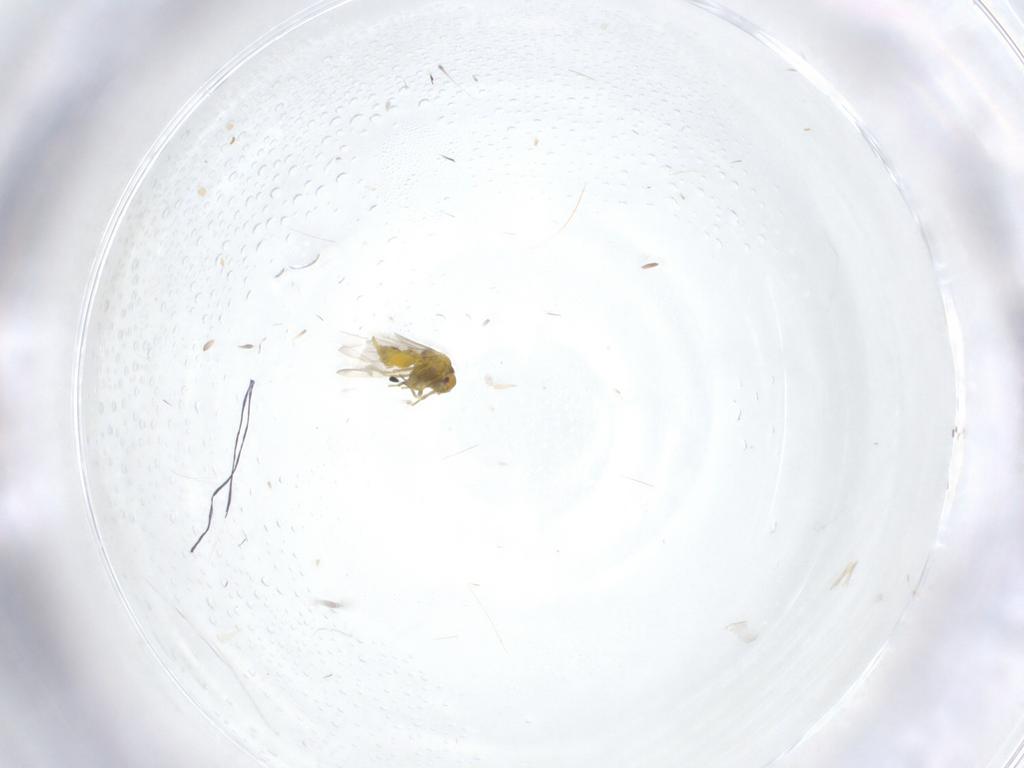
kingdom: Animalia
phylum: Arthropoda
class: Insecta
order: Hemiptera
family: Aleyrodidae
